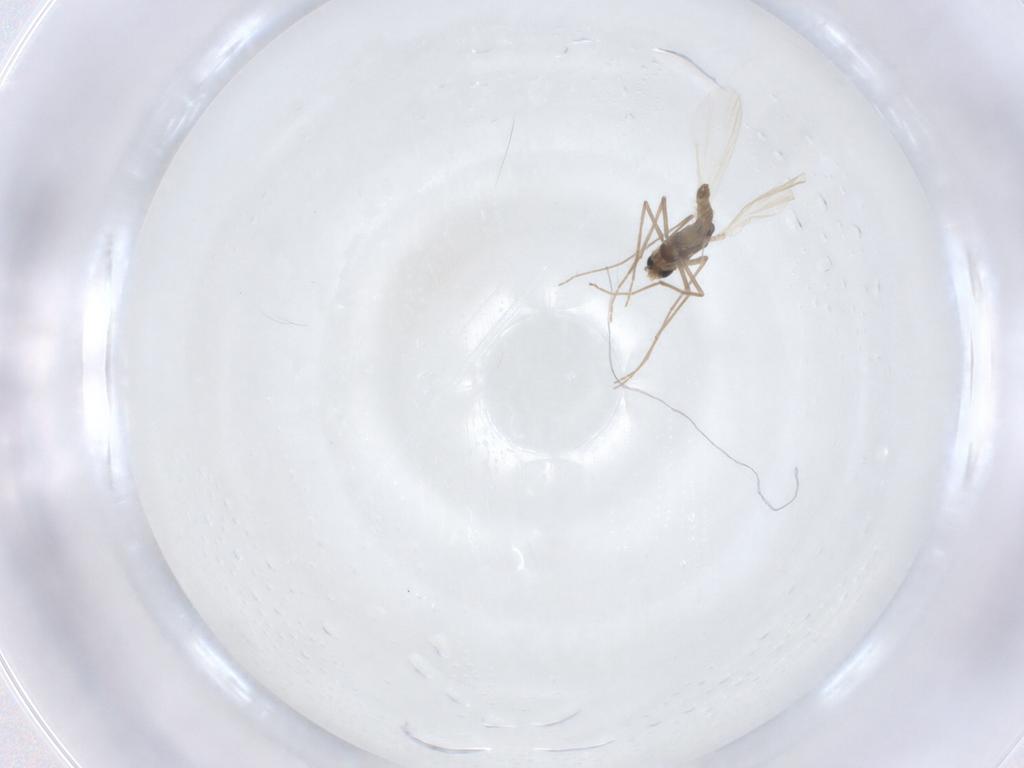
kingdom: Animalia
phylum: Arthropoda
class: Insecta
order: Diptera
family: Chironomidae
